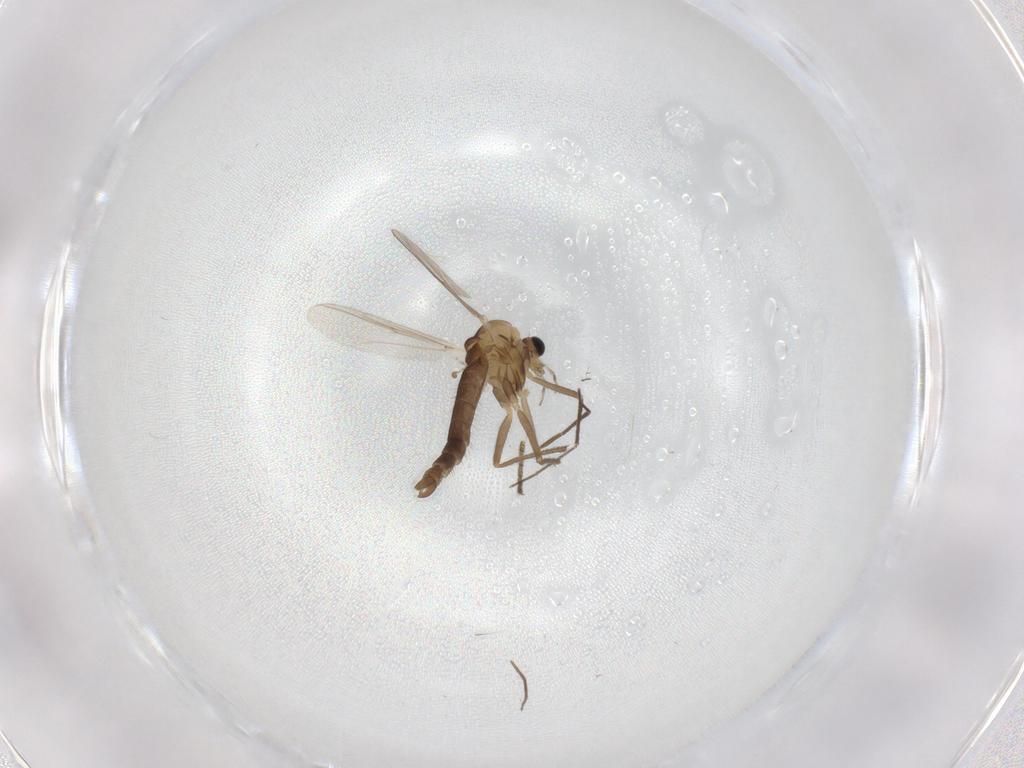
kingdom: Animalia
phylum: Arthropoda
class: Insecta
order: Diptera
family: Chironomidae
